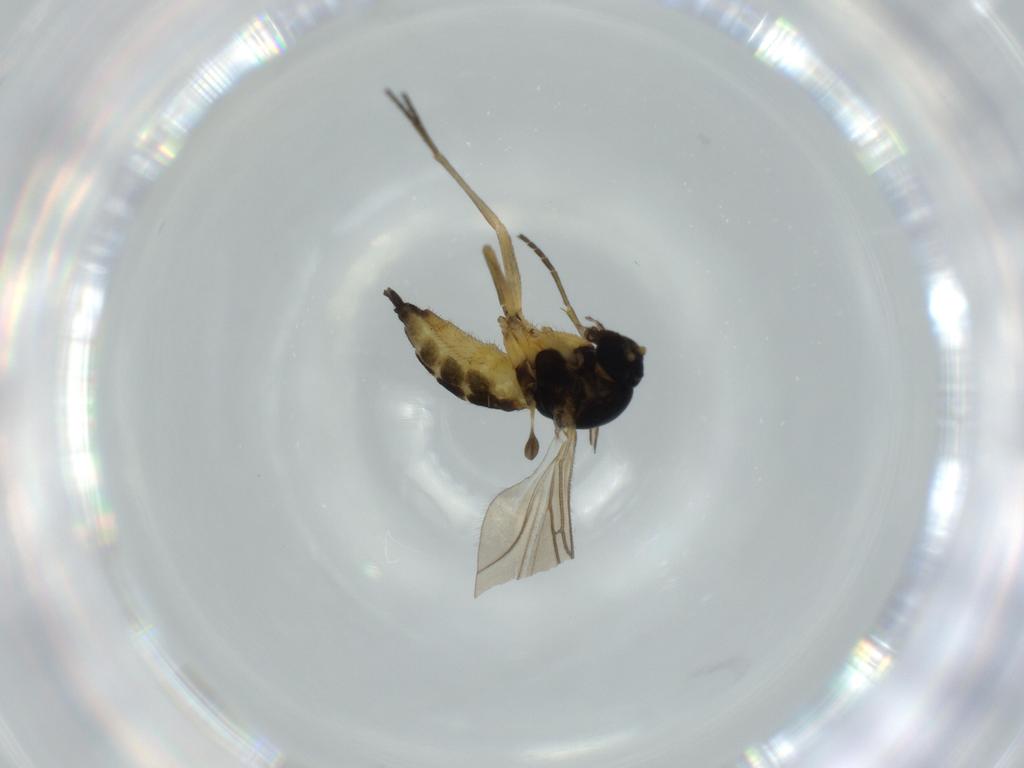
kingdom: Animalia
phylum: Arthropoda
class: Insecta
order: Diptera
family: Sciaridae
